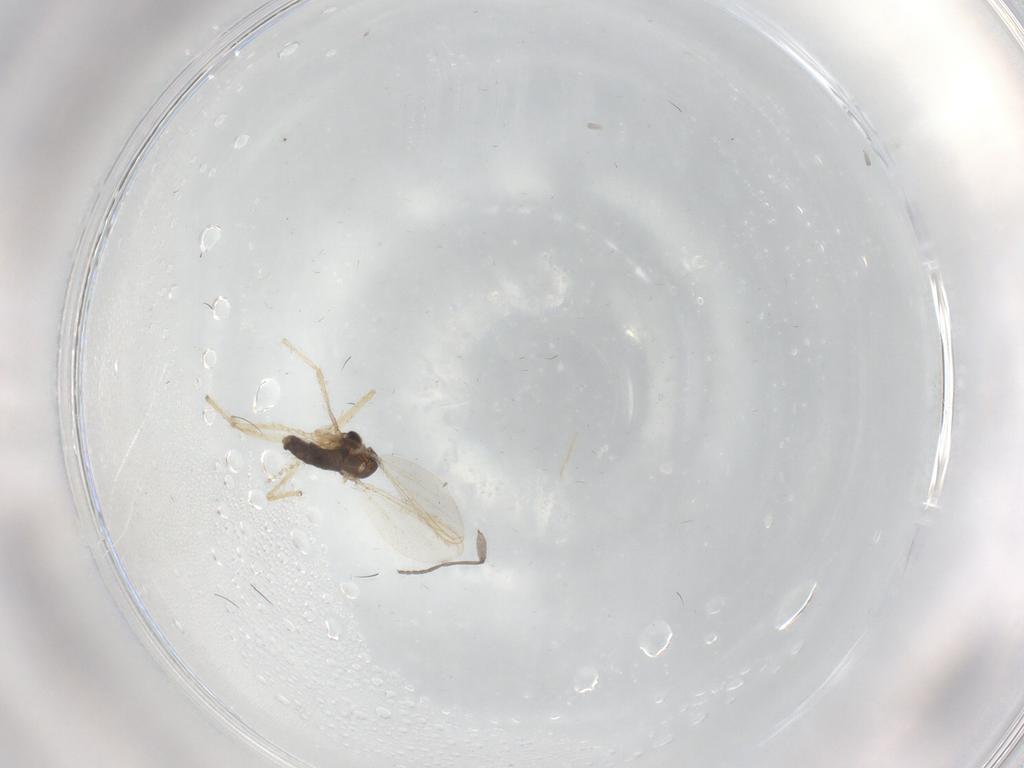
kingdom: Animalia
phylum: Arthropoda
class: Insecta
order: Diptera
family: Chironomidae
